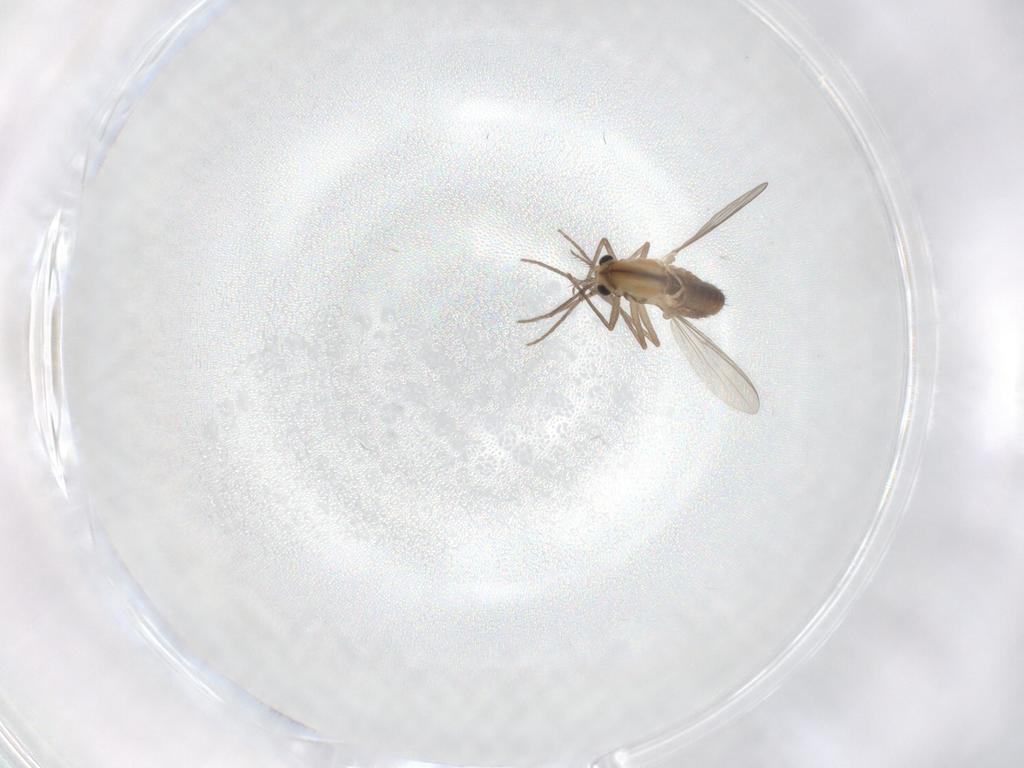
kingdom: Animalia
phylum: Arthropoda
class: Insecta
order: Diptera
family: Chironomidae
